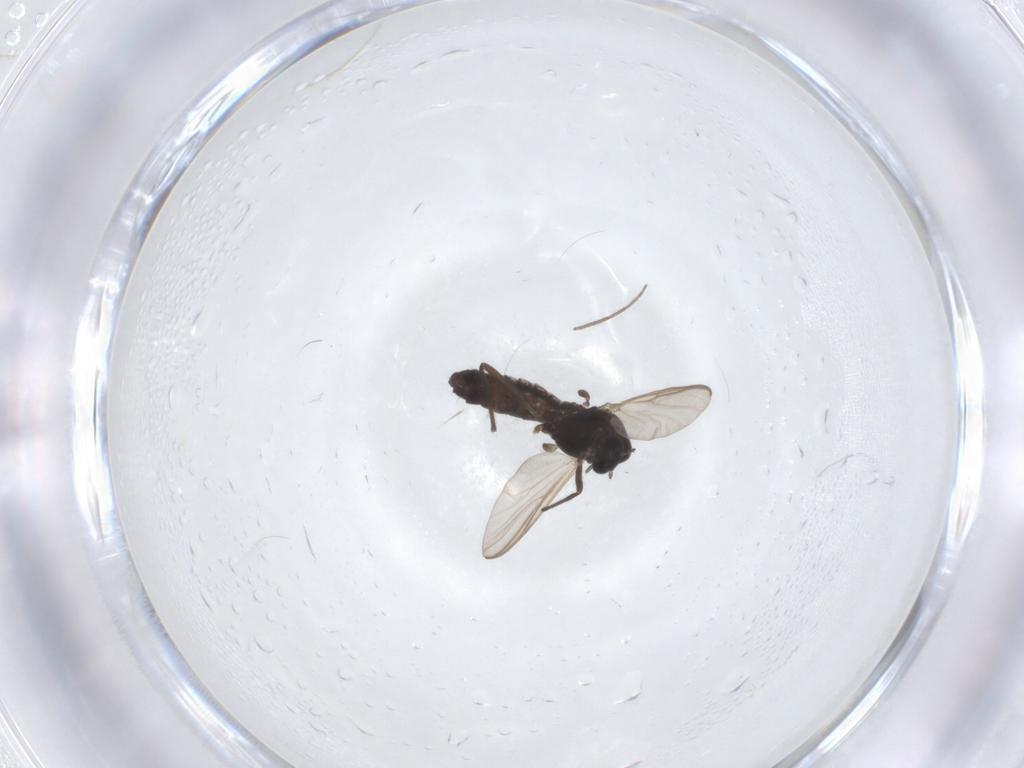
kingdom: Animalia
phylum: Arthropoda
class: Insecta
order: Diptera
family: Chironomidae
